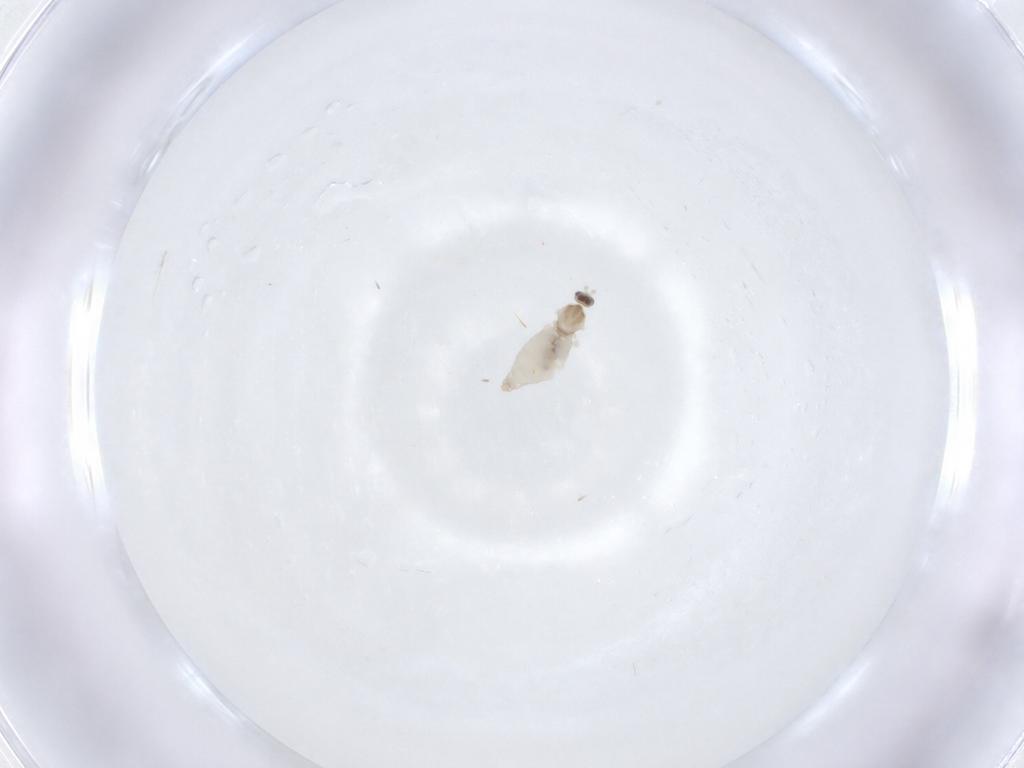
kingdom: Animalia
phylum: Arthropoda
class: Insecta
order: Diptera
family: Cecidomyiidae
